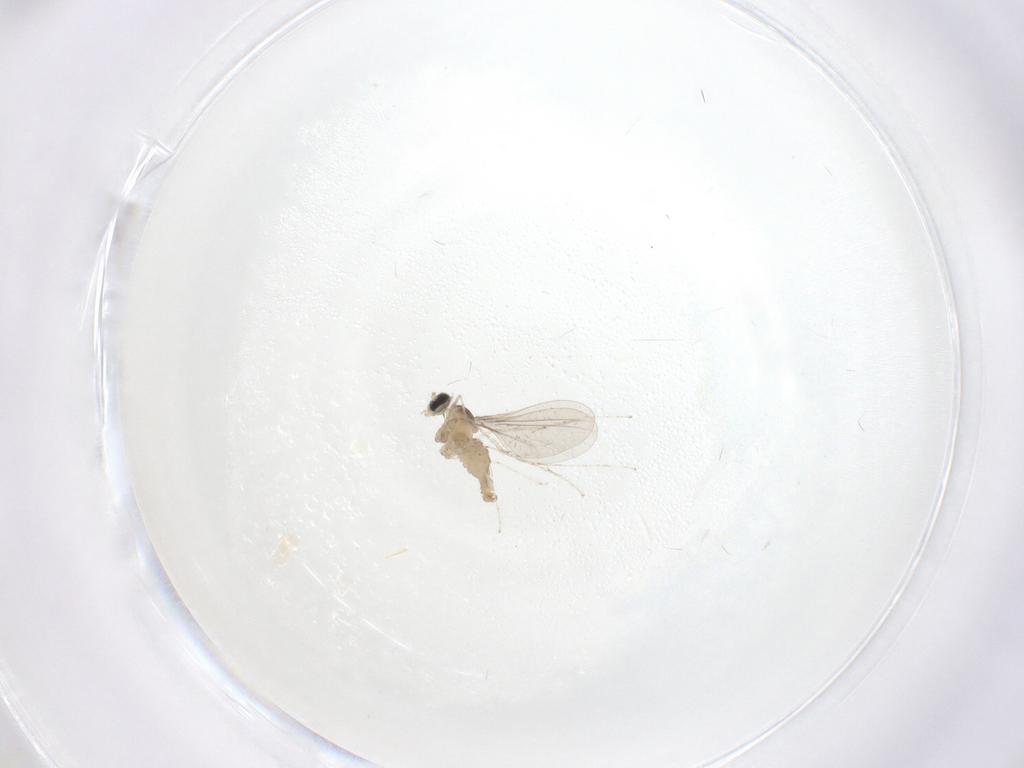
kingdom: Animalia
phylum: Arthropoda
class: Insecta
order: Diptera
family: Cecidomyiidae
